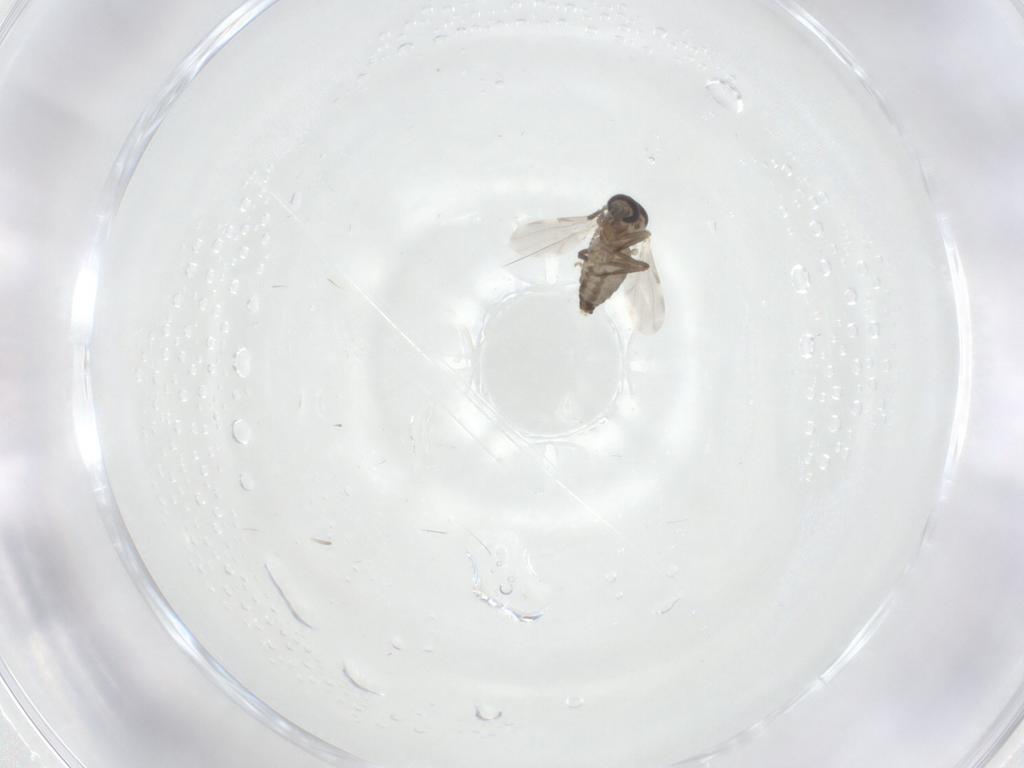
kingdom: Animalia
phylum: Arthropoda
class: Insecta
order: Diptera
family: Ceratopogonidae
